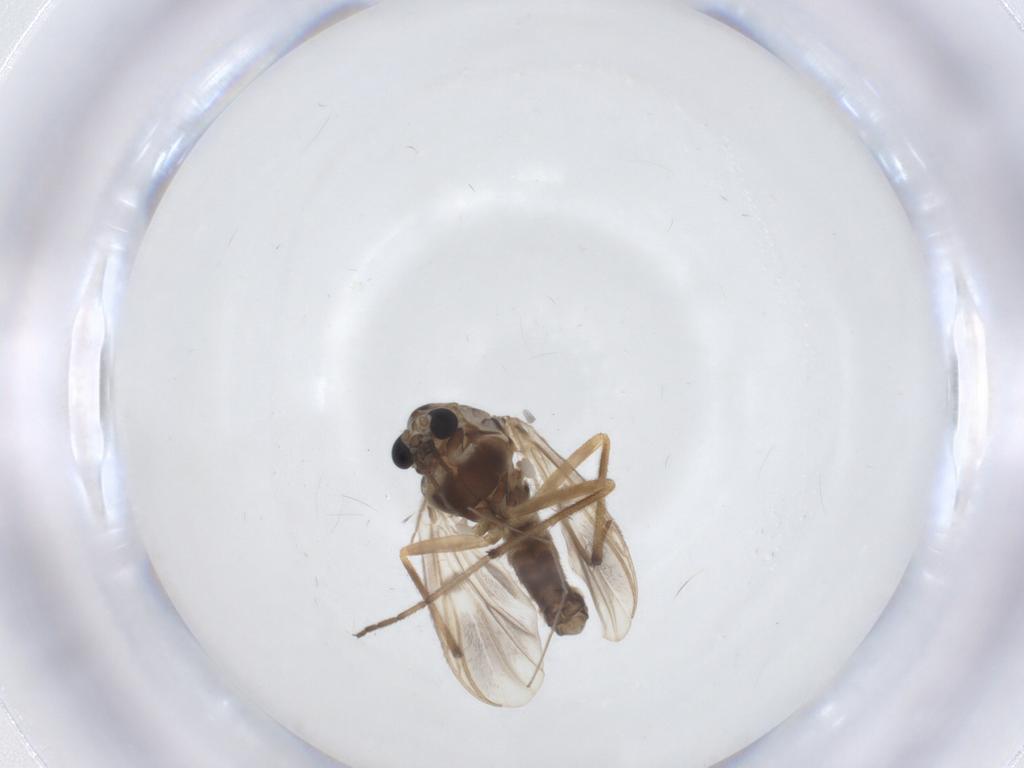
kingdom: Animalia
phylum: Arthropoda
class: Insecta
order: Diptera
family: Chironomidae
